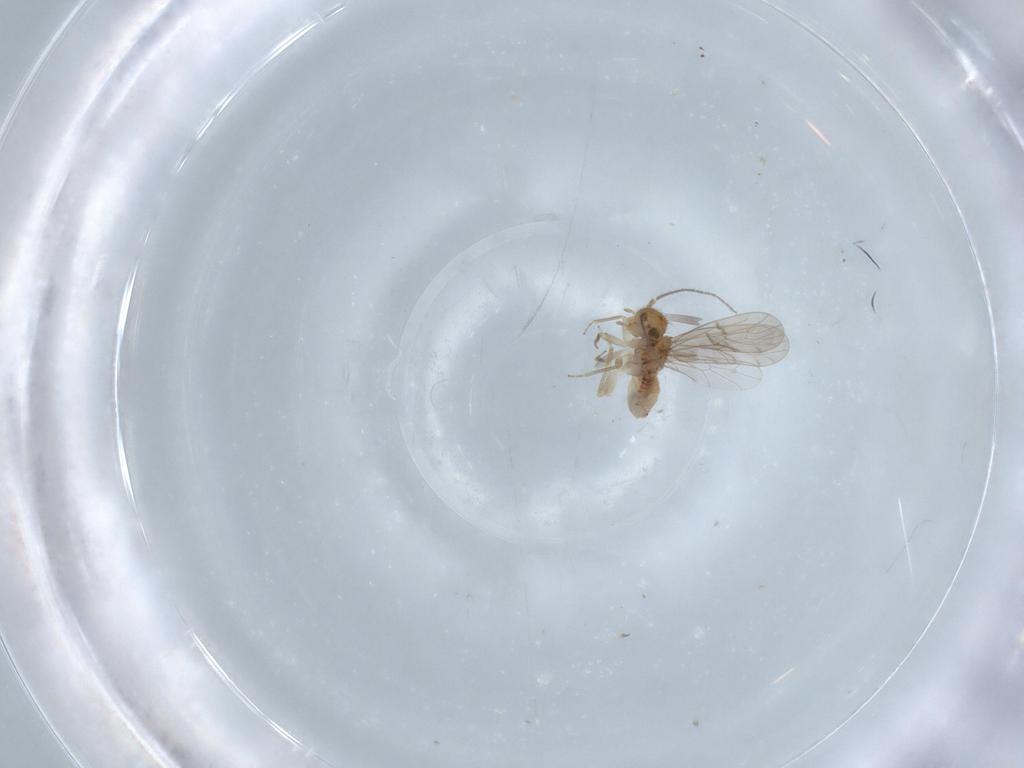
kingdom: Animalia
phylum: Arthropoda
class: Insecta
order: Psocodea
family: Ectopsocidae
